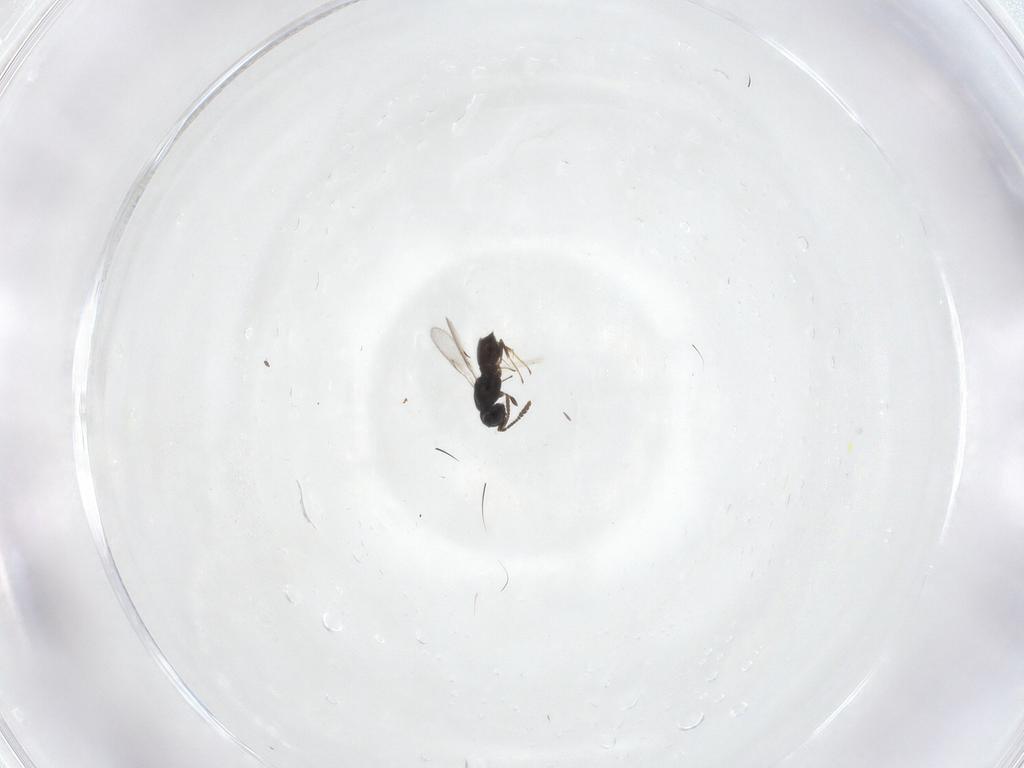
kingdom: Animalia
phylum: Arthropoda
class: Insecta
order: Hymenoptera
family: Scelionidae
